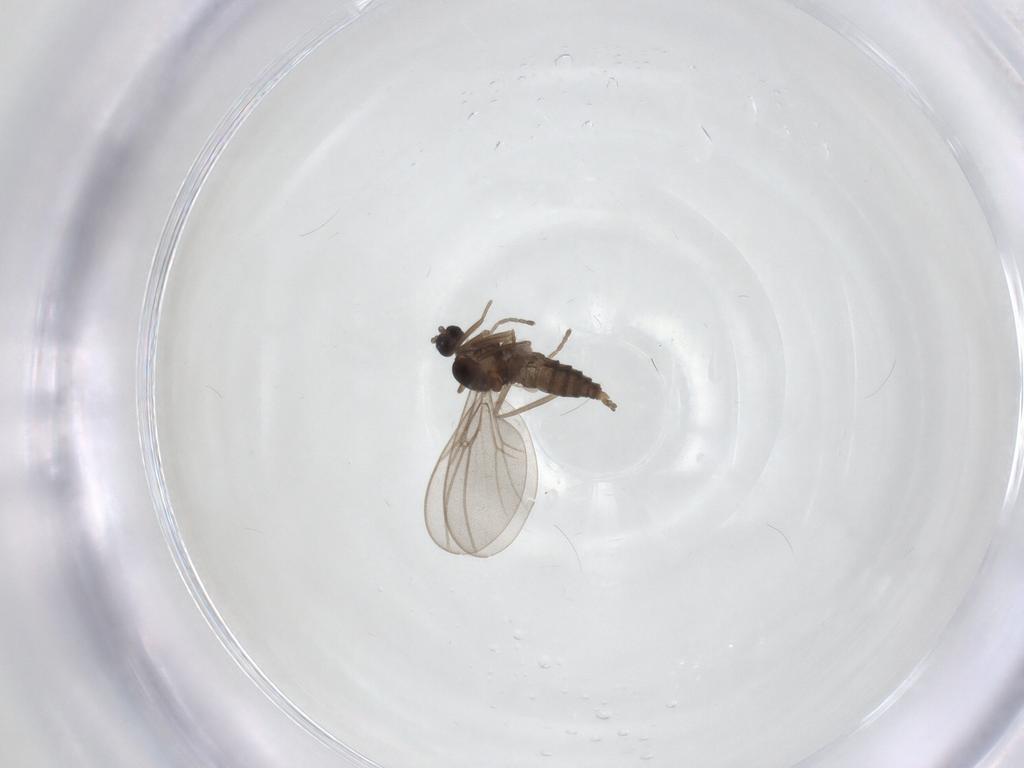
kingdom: Animalia
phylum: Arthropoda
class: Insecta
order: Diptera
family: Cecidomyiidae
